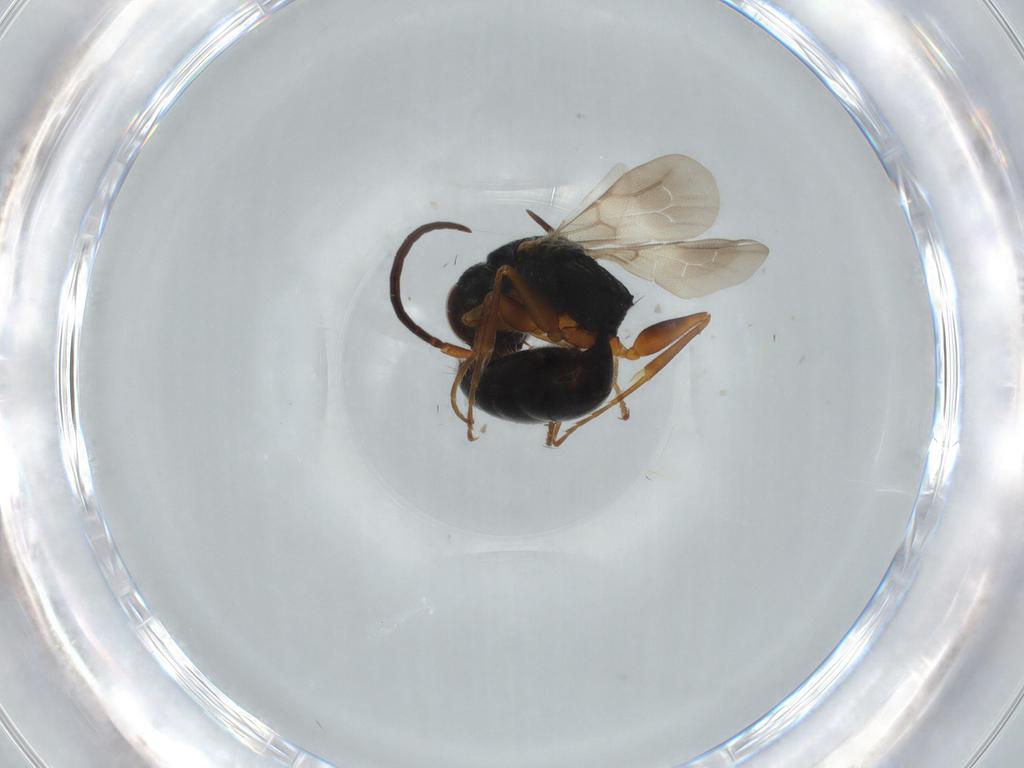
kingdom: Animalia
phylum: Arthropoda
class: Insecta
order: Hymenoptera
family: Bethylidae
